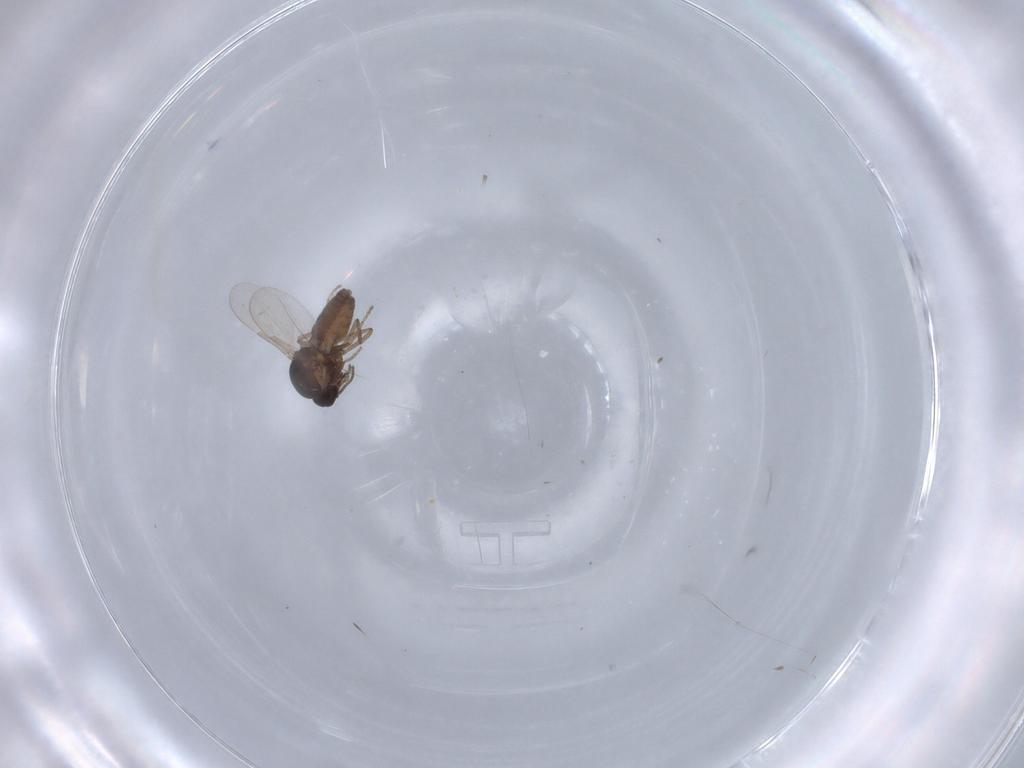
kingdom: Animalia
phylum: Arthropoda
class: Insecta
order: Diptera
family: Ceratopogonidae
